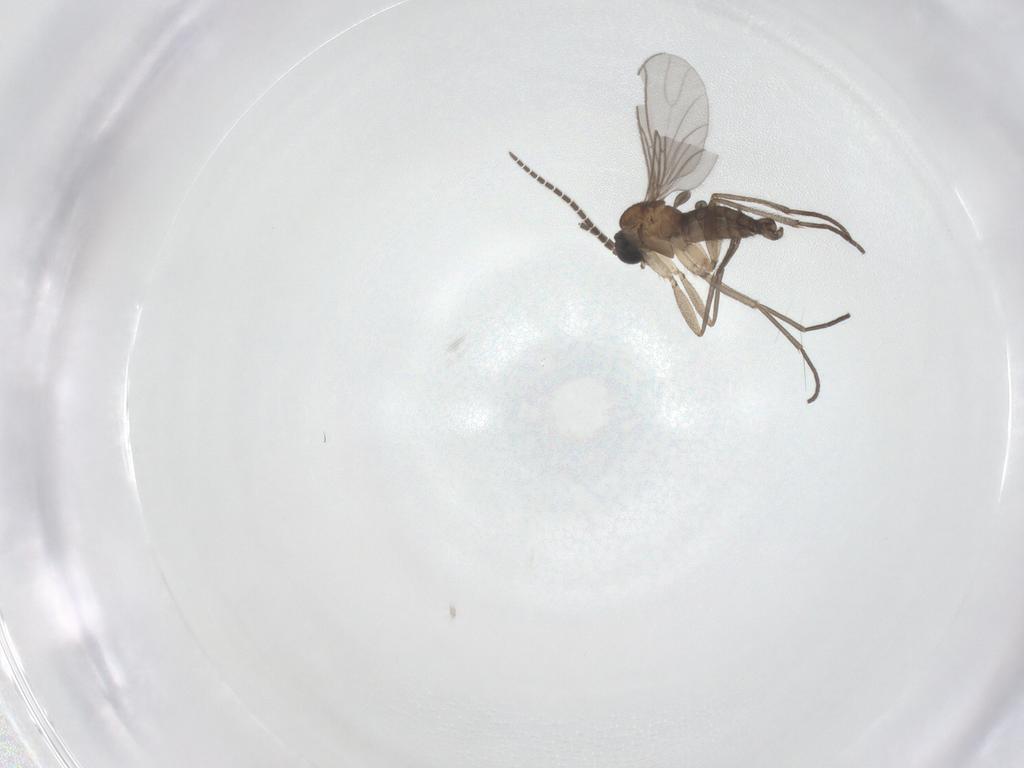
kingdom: Animalia
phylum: Arthropoda
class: Insecta
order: Diptera
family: Sciaridae
